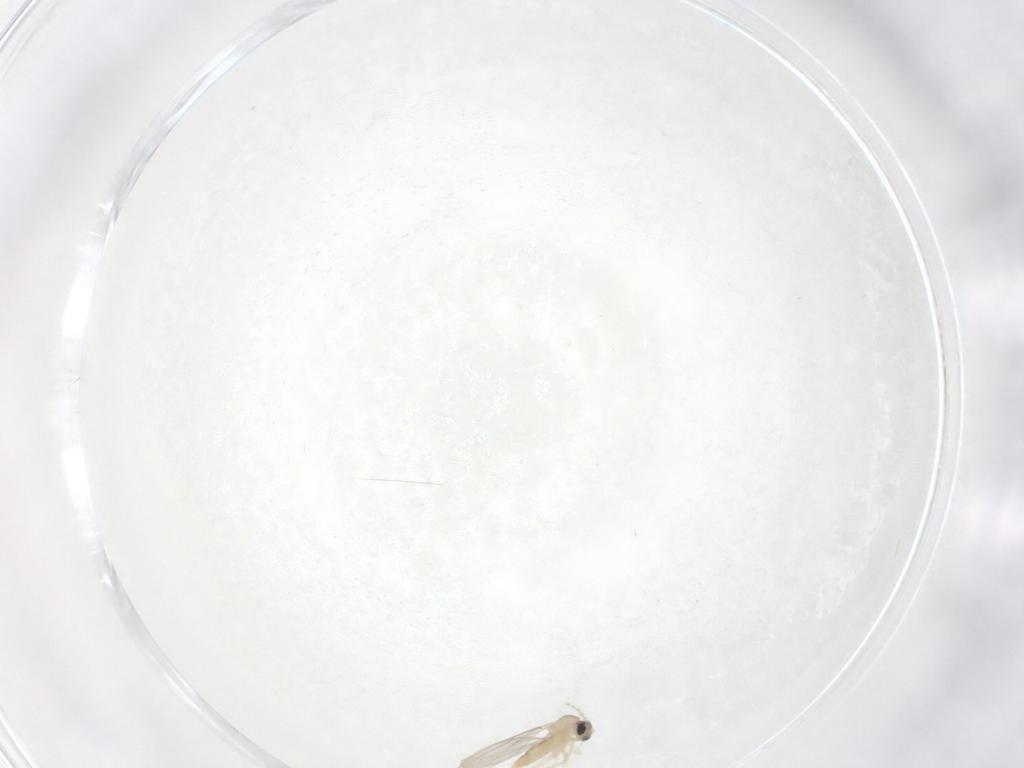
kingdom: Animalia
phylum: Arthropoda
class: Insecta
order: Diptera
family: Cecidomyiidae
